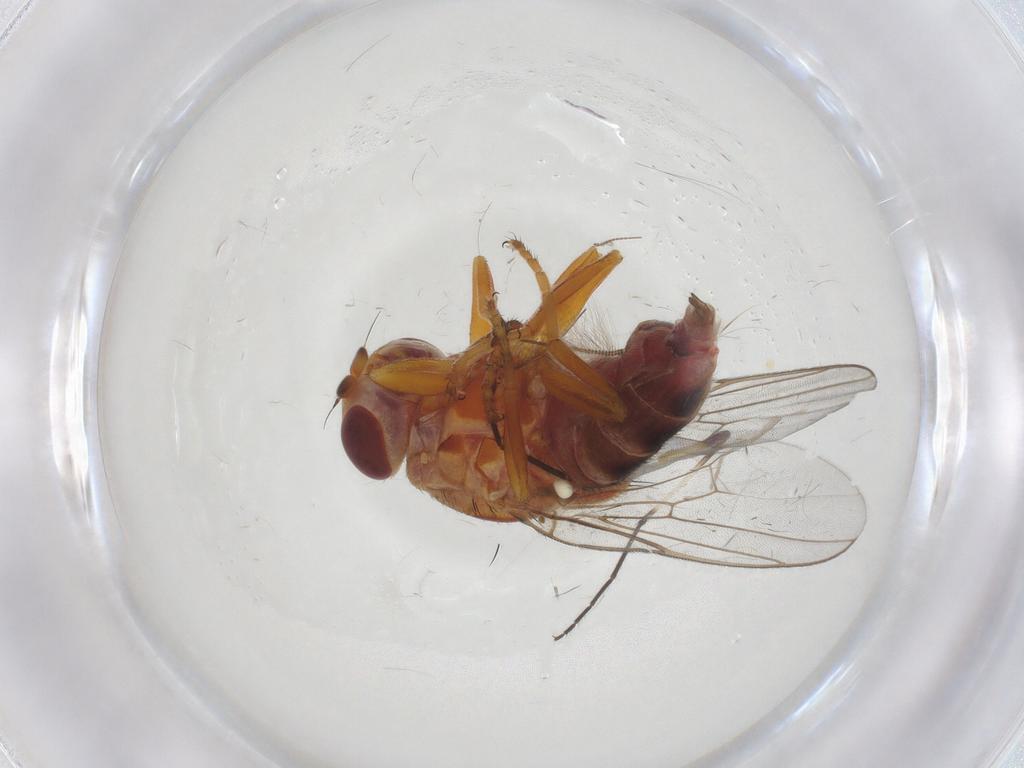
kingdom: Animalia
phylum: Arthropoda
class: Insecta
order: Diptera
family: Chloropidae
